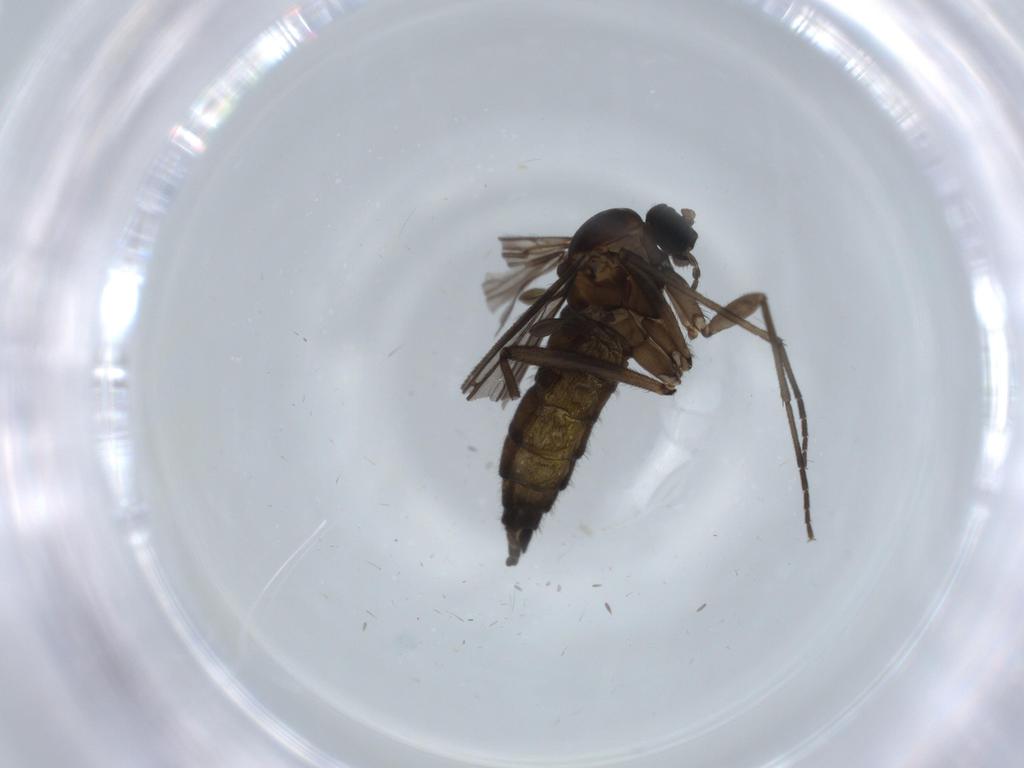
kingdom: Animalia
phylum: Arthropoda
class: Insecta
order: Diptera
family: Sciaridae
